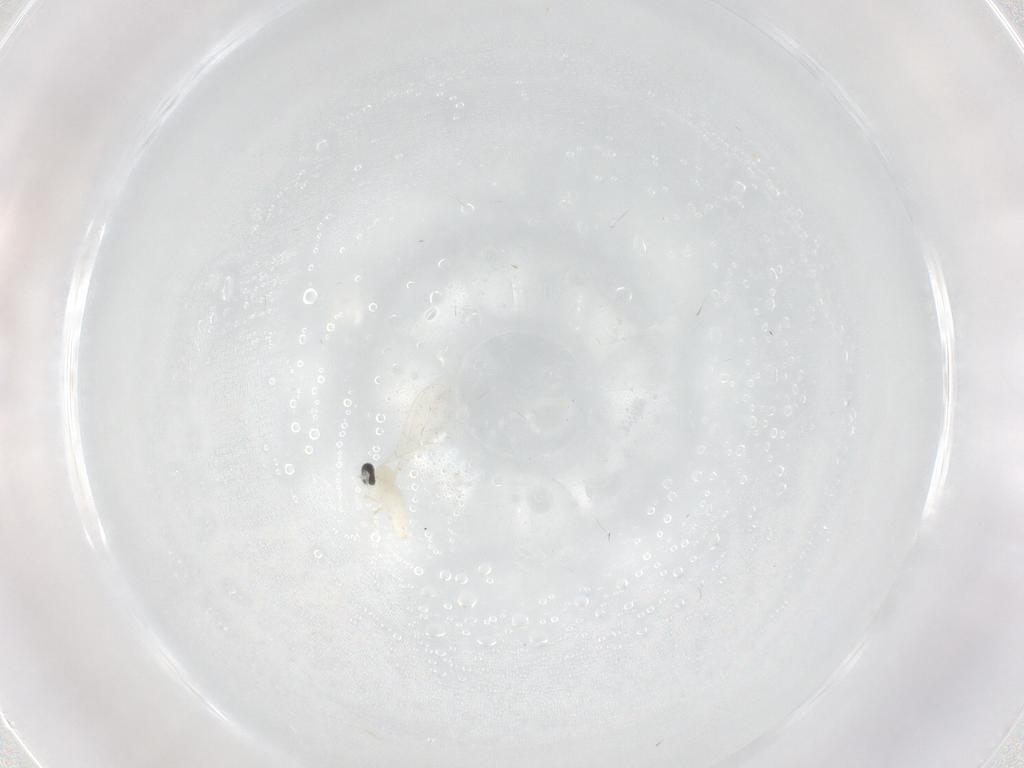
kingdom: Animalia
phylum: Arthropoda
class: Insecta
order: Diptera
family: Cecidomyiidae
